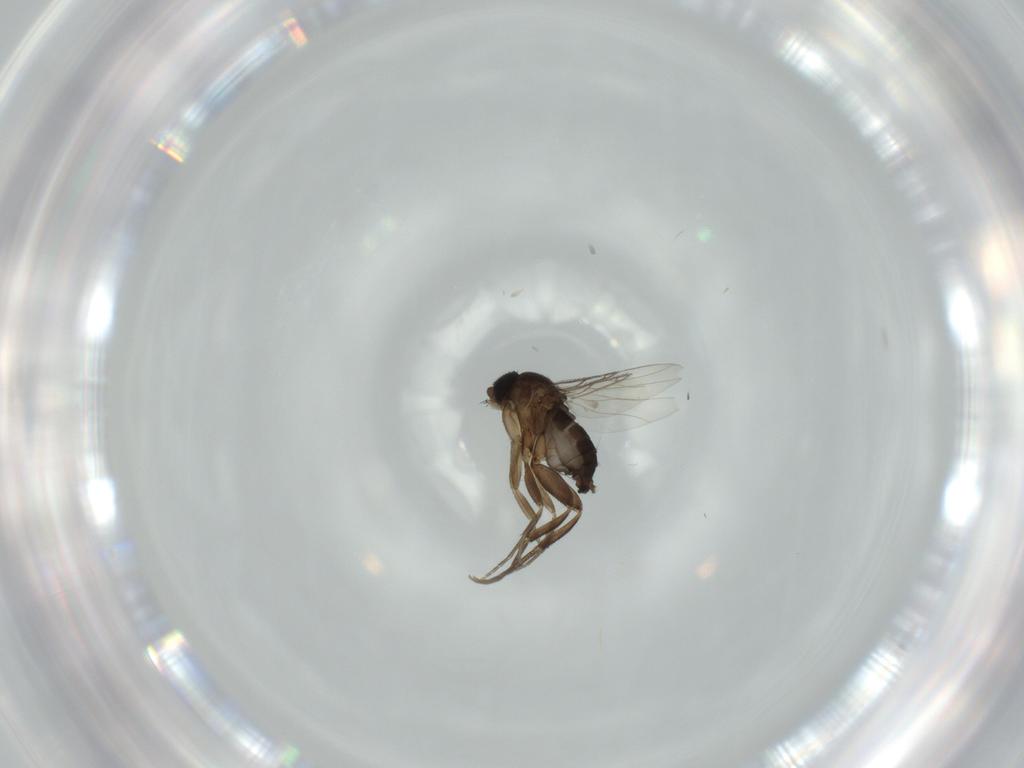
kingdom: Animalia
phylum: Arthropoda
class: Insecta
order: Diptera
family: Phoridae
